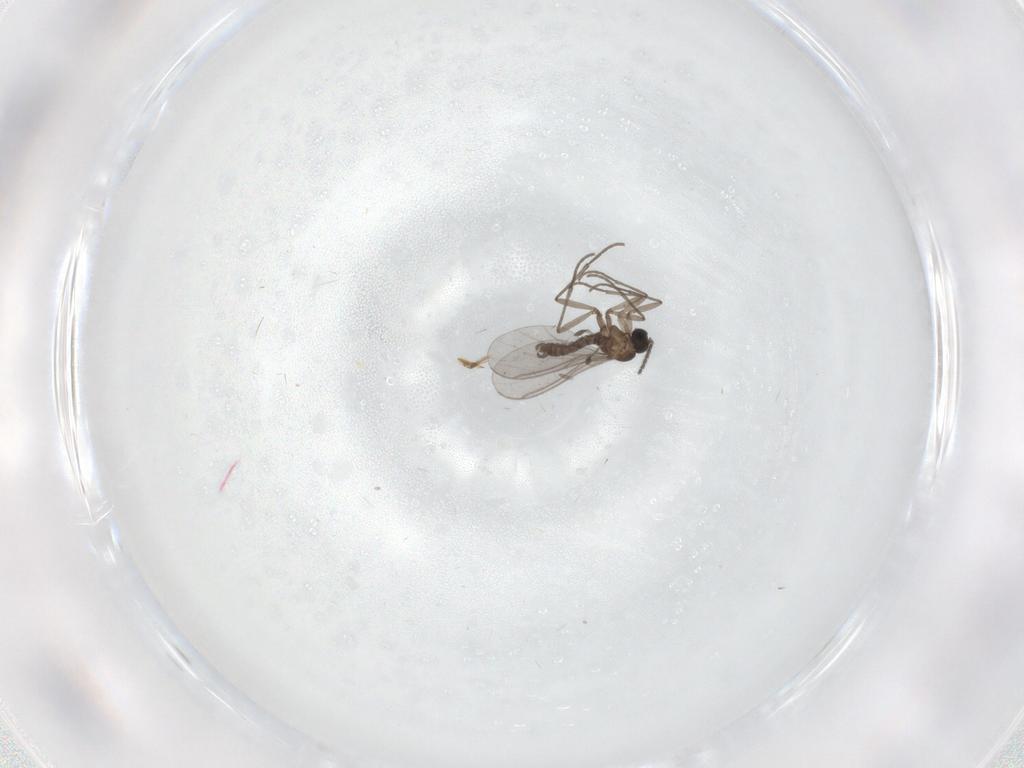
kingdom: Animalia
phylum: Arthropoda
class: Insecta
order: Diptera
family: Sciaridae
